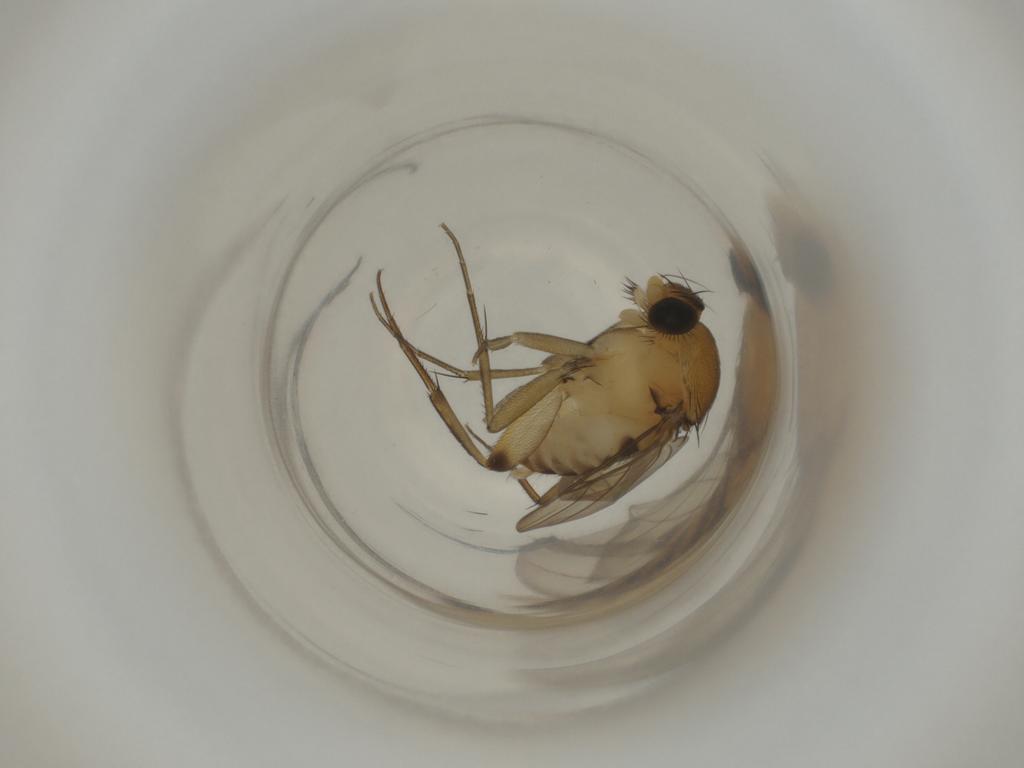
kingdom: Animalia
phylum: Arthropoda
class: Insecta
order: Diptera
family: Phoridae
